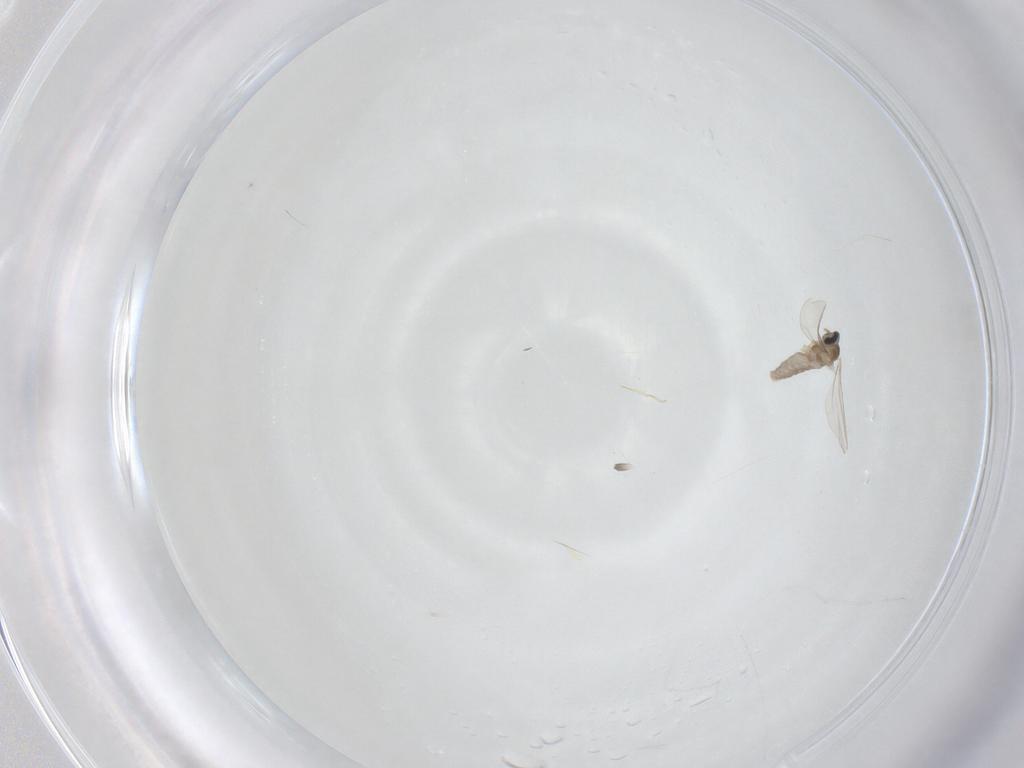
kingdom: Animalia
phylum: Arthropoda
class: Insecta
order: Diptera
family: Cecidomyiidae
